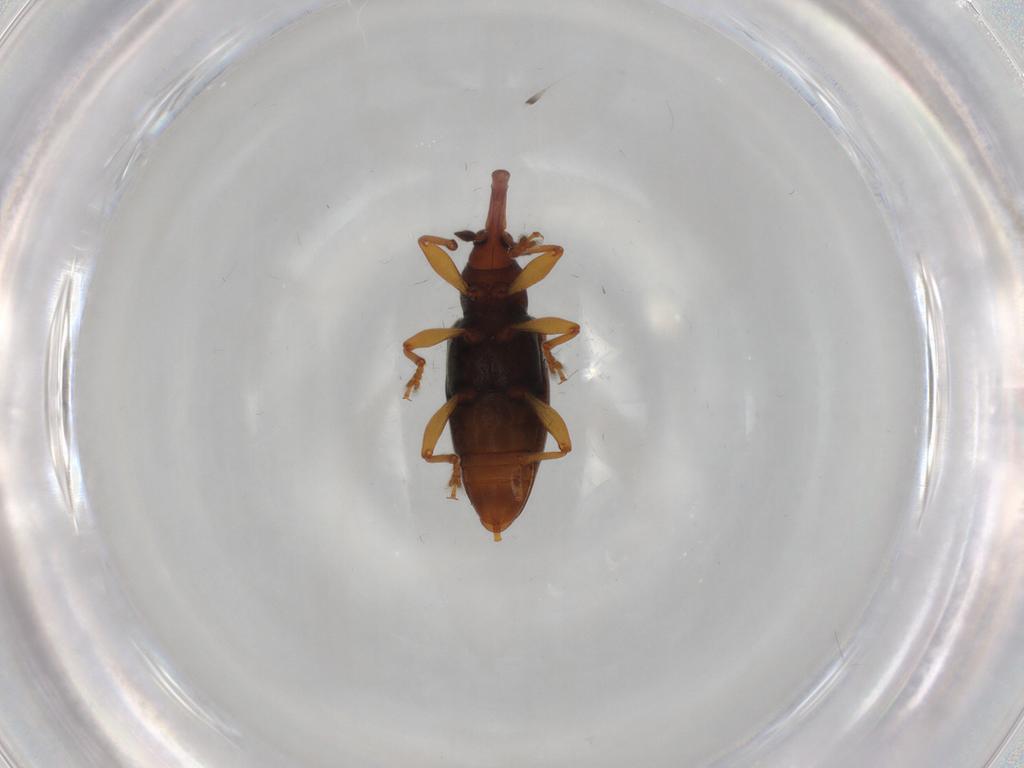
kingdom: Animalia
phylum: Arthropoda
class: Insecta
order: Coleoptera
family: Curculionidae
